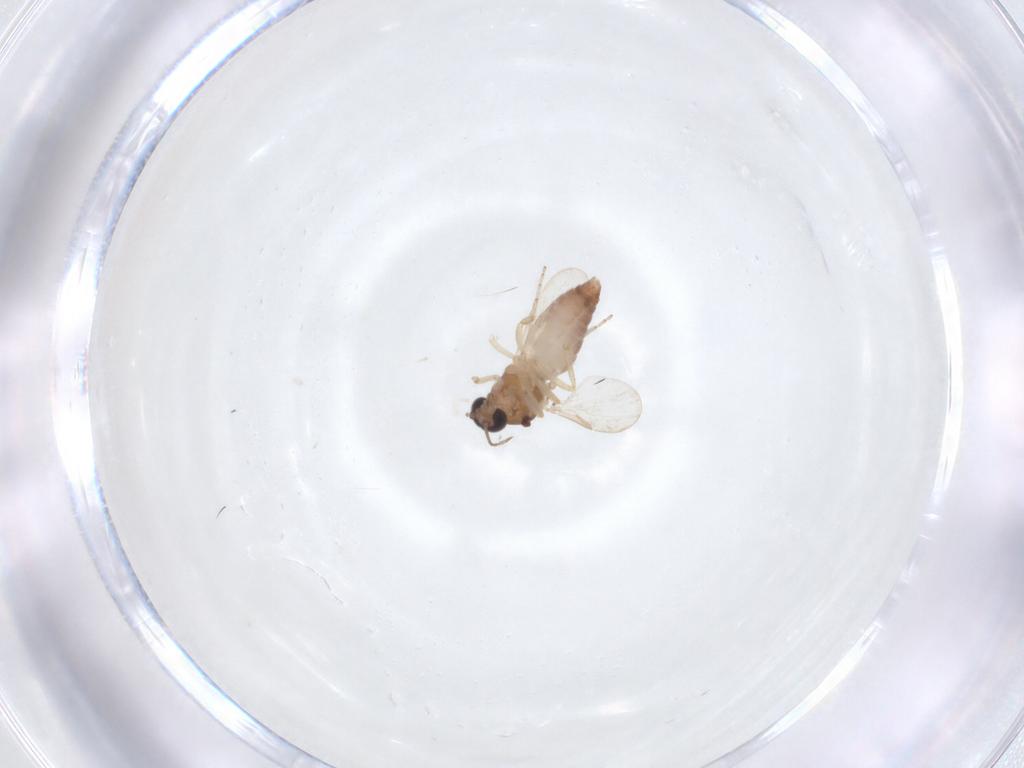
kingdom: Animalia
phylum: Arthropoda
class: Insecta
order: Diptera
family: Ceratopogonidae
